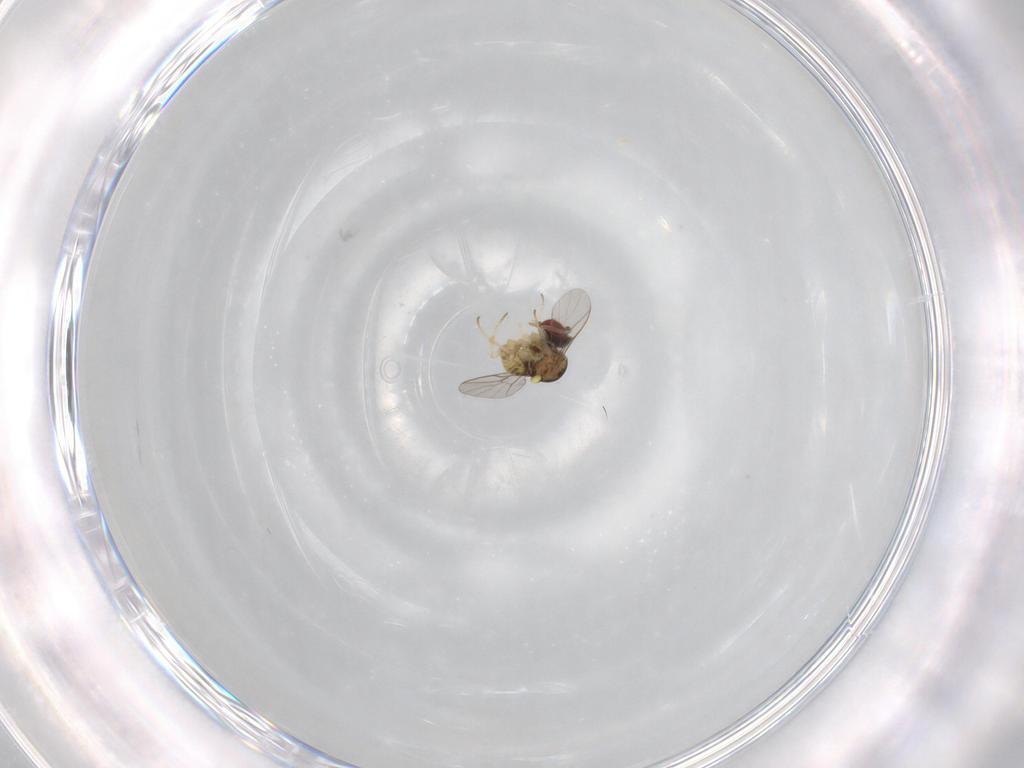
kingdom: Animalia
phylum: Arthropoda
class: Insecta
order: Diptera
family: Bombyliidae
